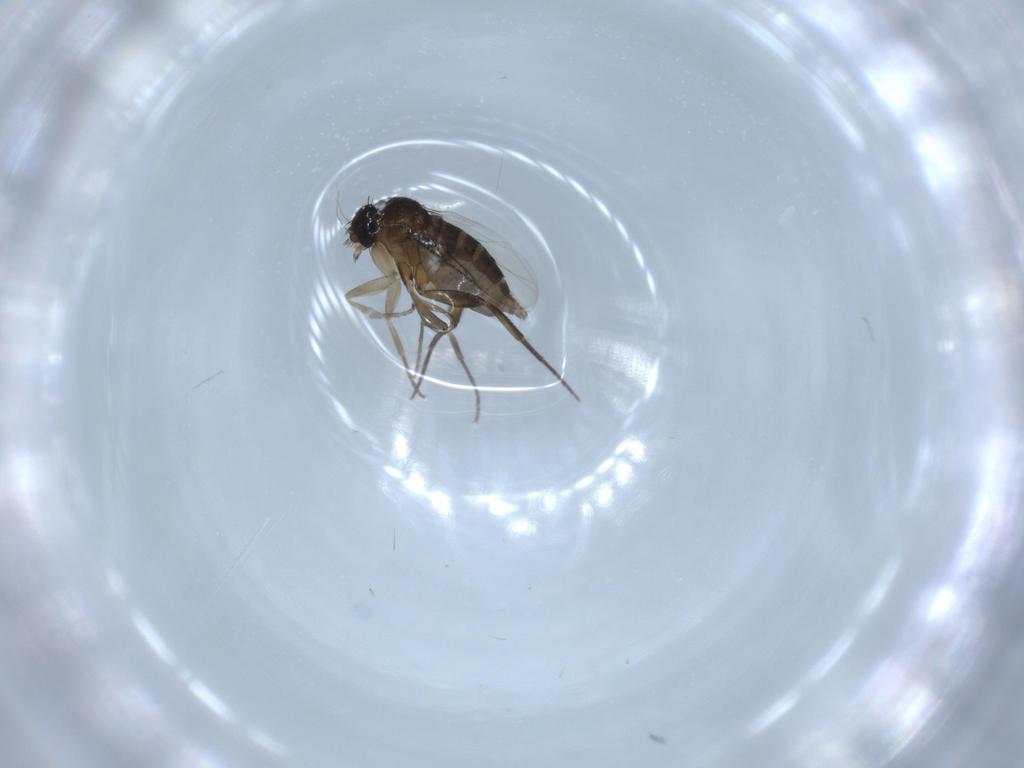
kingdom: Animalia
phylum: Arthropoda
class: Insecta
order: Diptera
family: Phoridae
